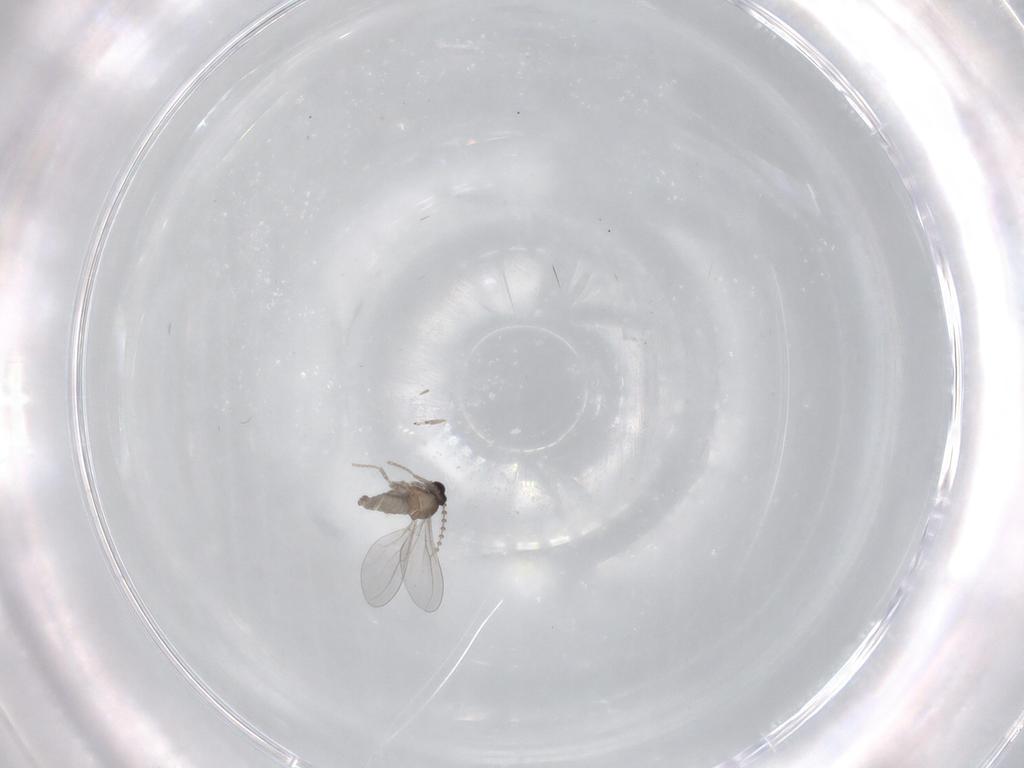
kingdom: Animalia
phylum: Arthropoda
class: Insecta
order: Diptera
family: Cecidomyiidae
